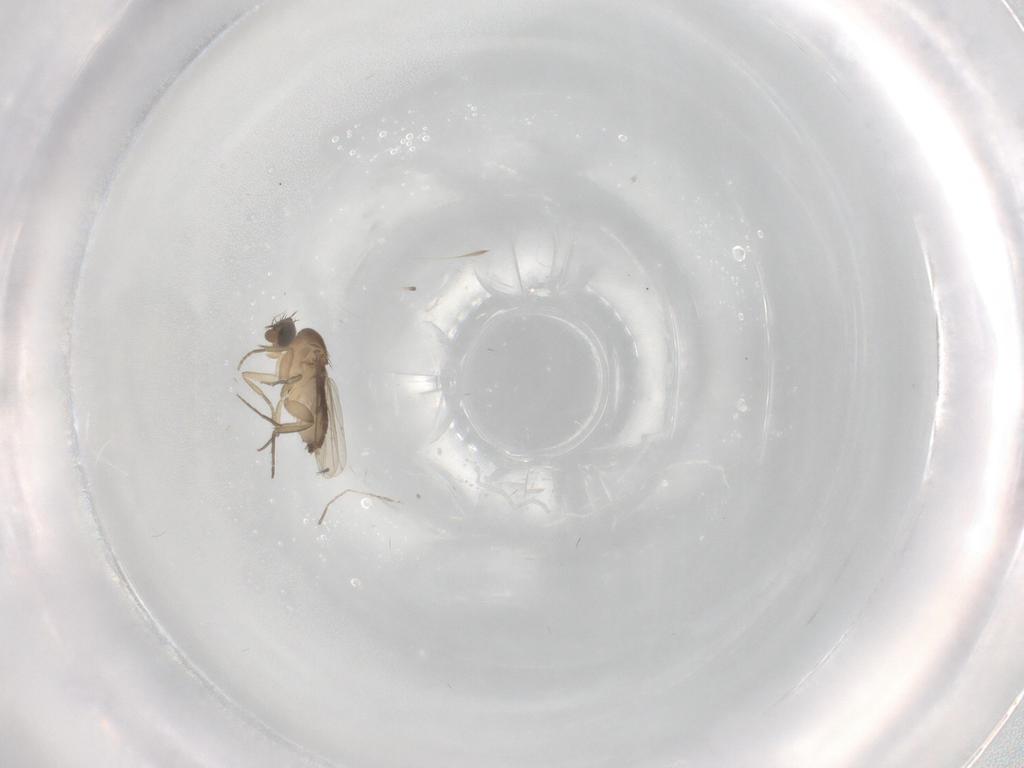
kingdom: Animalia
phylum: Arthropoda
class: Insecta
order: Diptera
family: Phoridae
